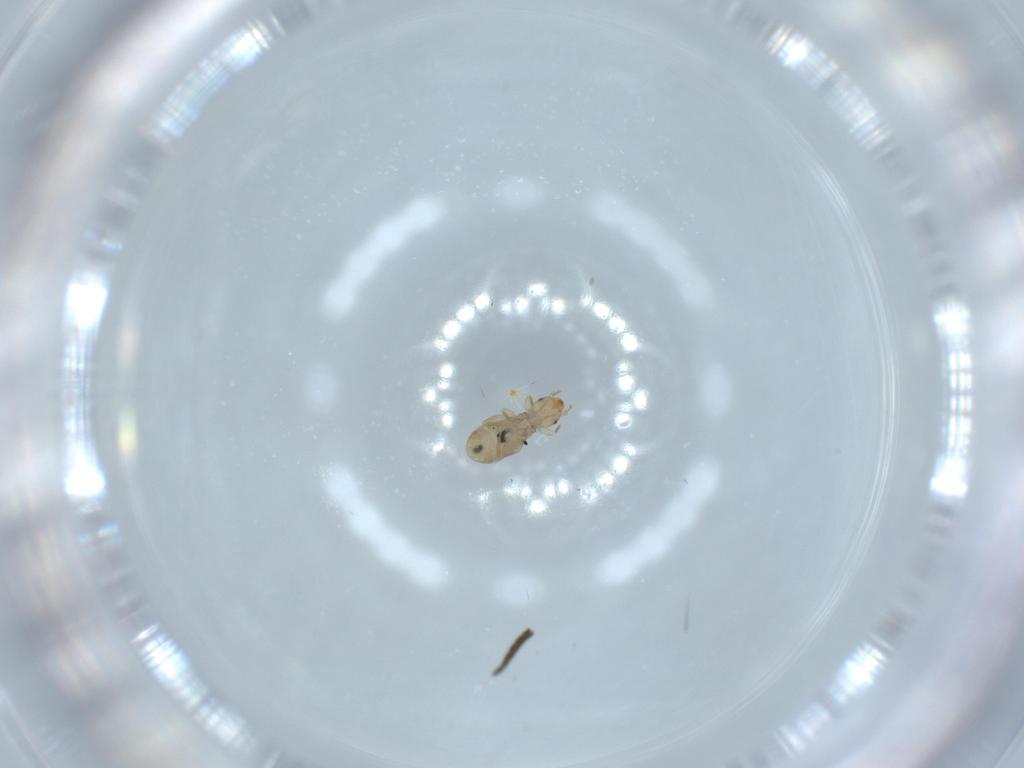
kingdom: Animalia
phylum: Arthropoda
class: Insecta
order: Psocodea
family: Liposcelididae
